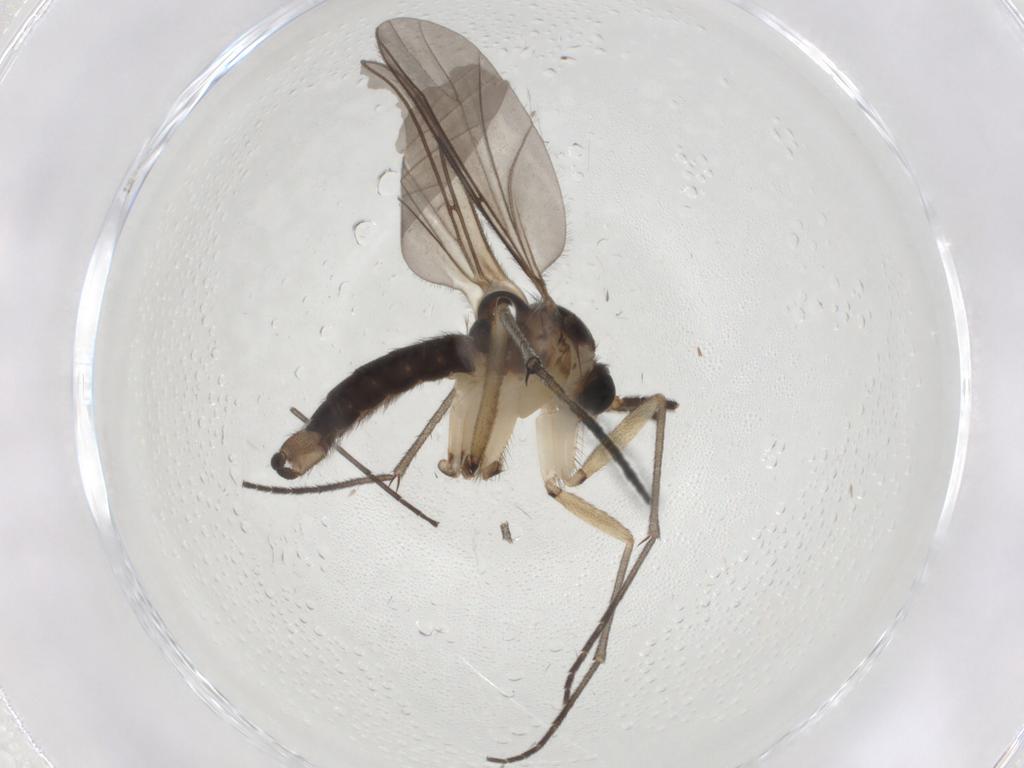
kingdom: Animalia
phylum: Arthropoda
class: Insecta
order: Diptera
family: Sciaridae
